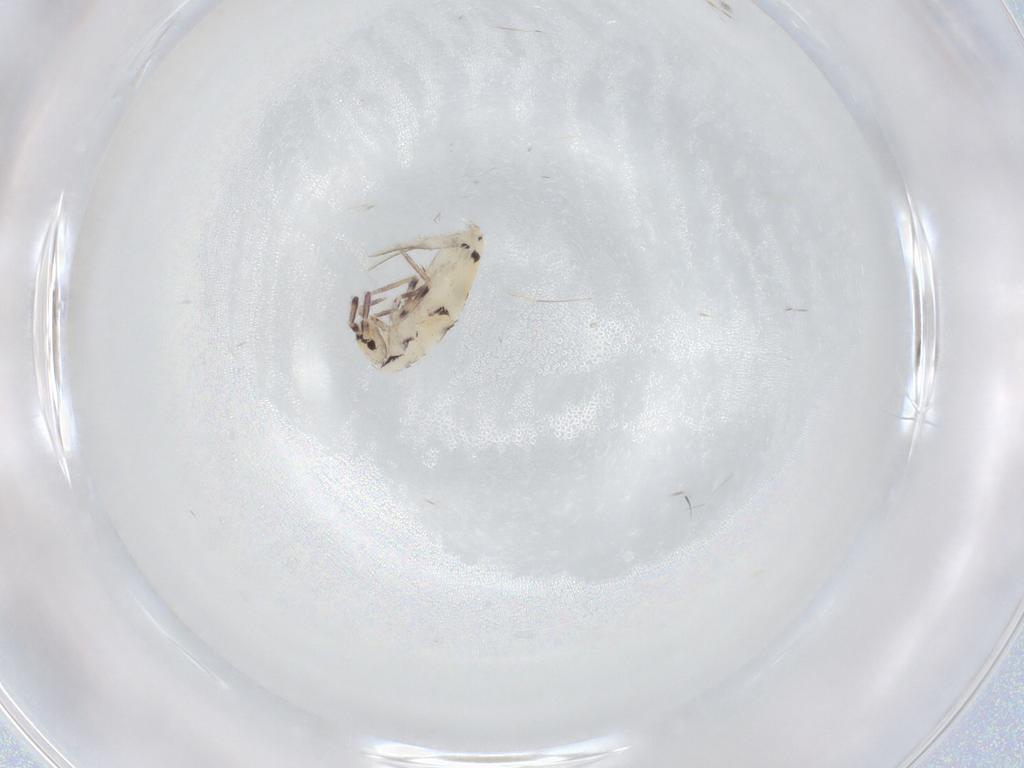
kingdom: Animalia
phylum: Arthropoda
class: Collembola
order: Entomobryomorpha
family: Entomobryidae
